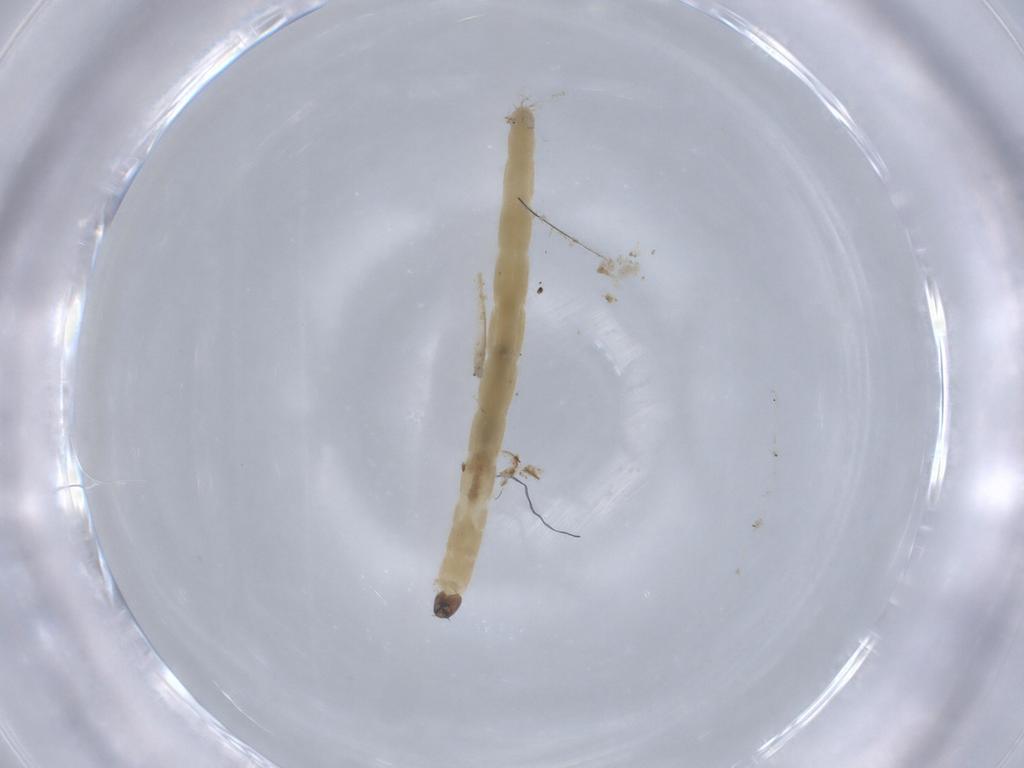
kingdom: Animalia
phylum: Arthropoda
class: Insecta
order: Diptera
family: Chironomidae
